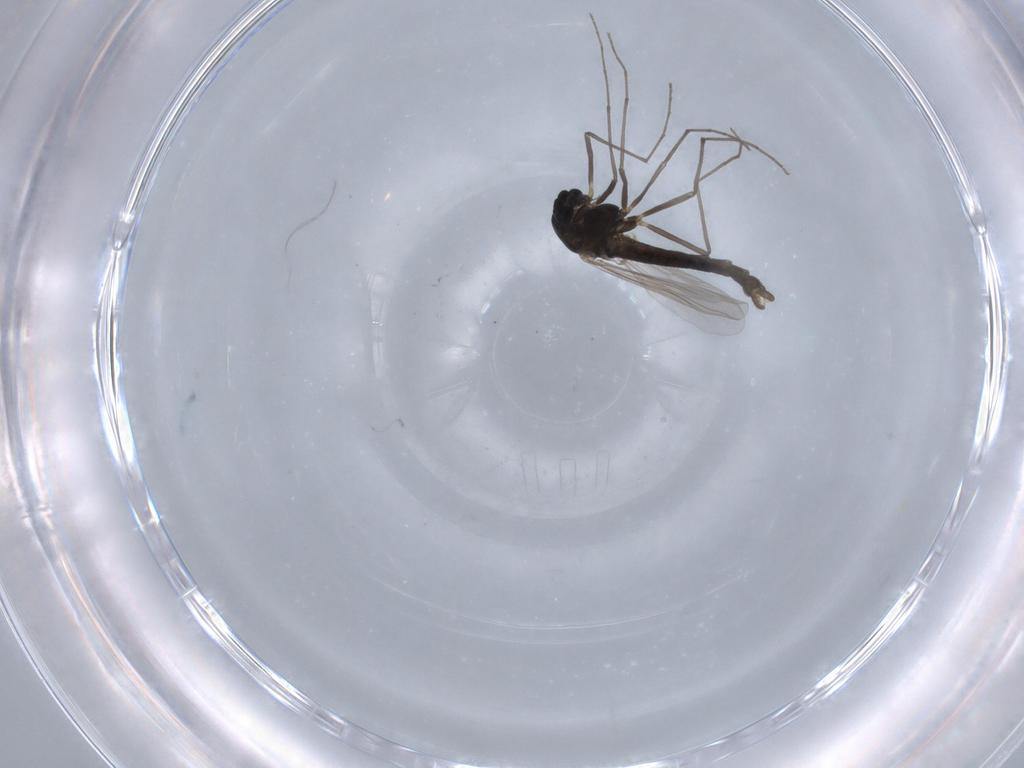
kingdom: Animalia
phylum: Arthropoda
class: Insecta
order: Diptera
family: Chironomidae
